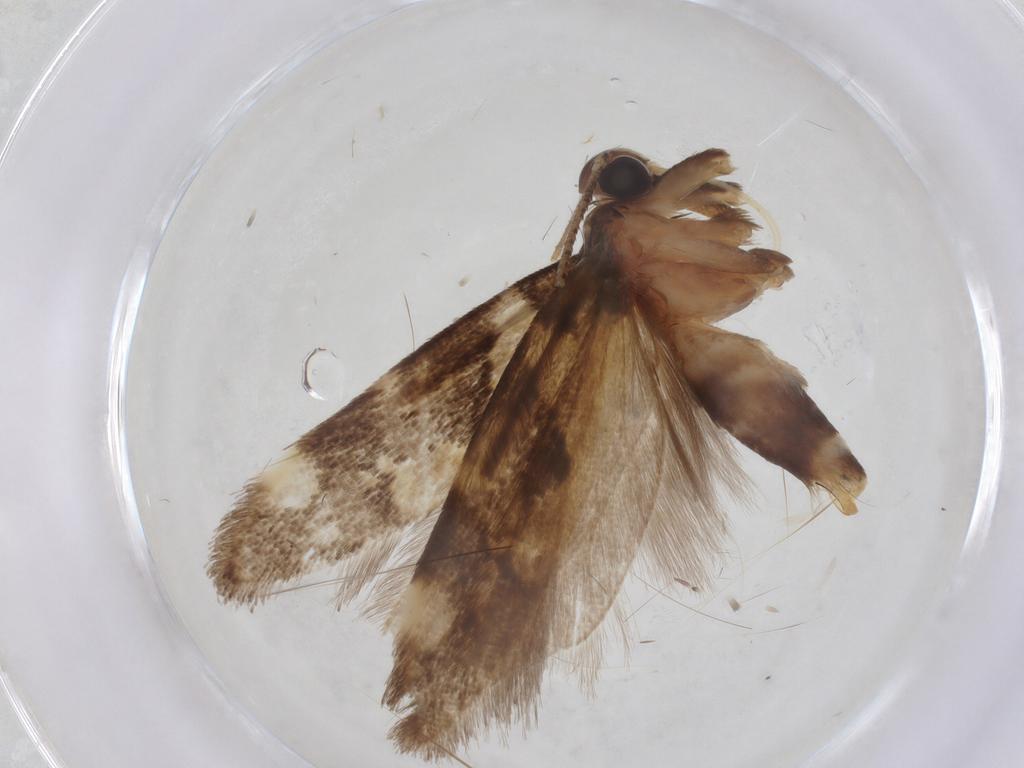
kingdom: Animalia
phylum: Arthropoda
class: Insecta
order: Lepidoptera
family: Gelechiidae
